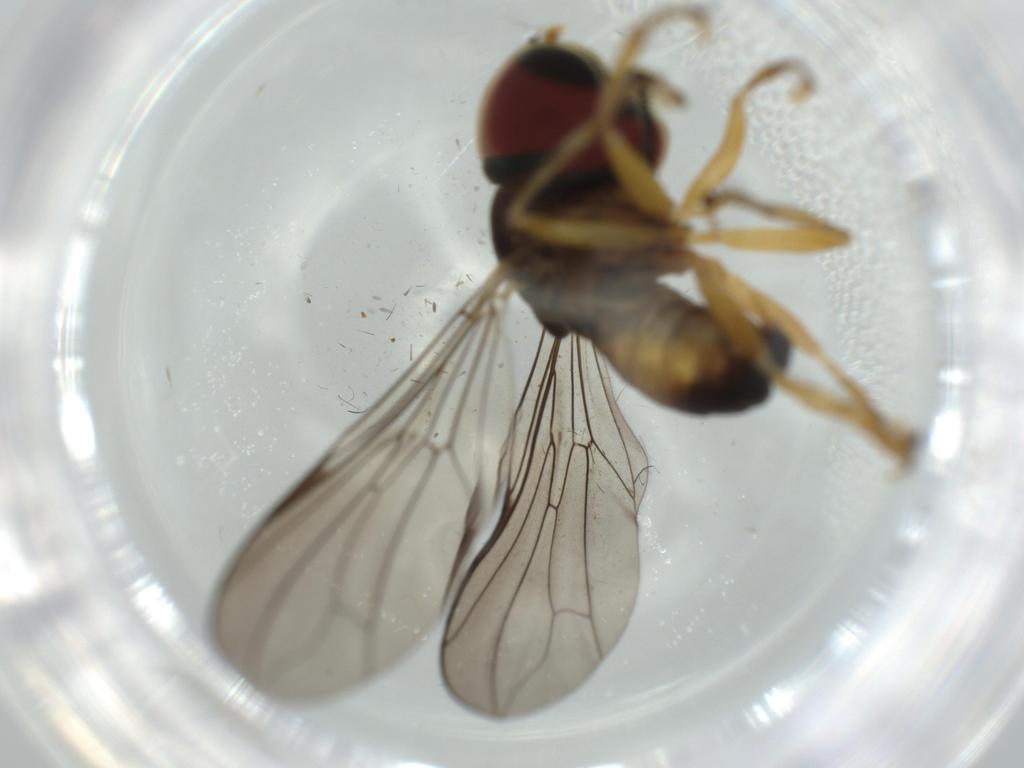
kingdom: Animalia
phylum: Arthropoda
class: Insecta
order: Diptera
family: Pipunculidae
